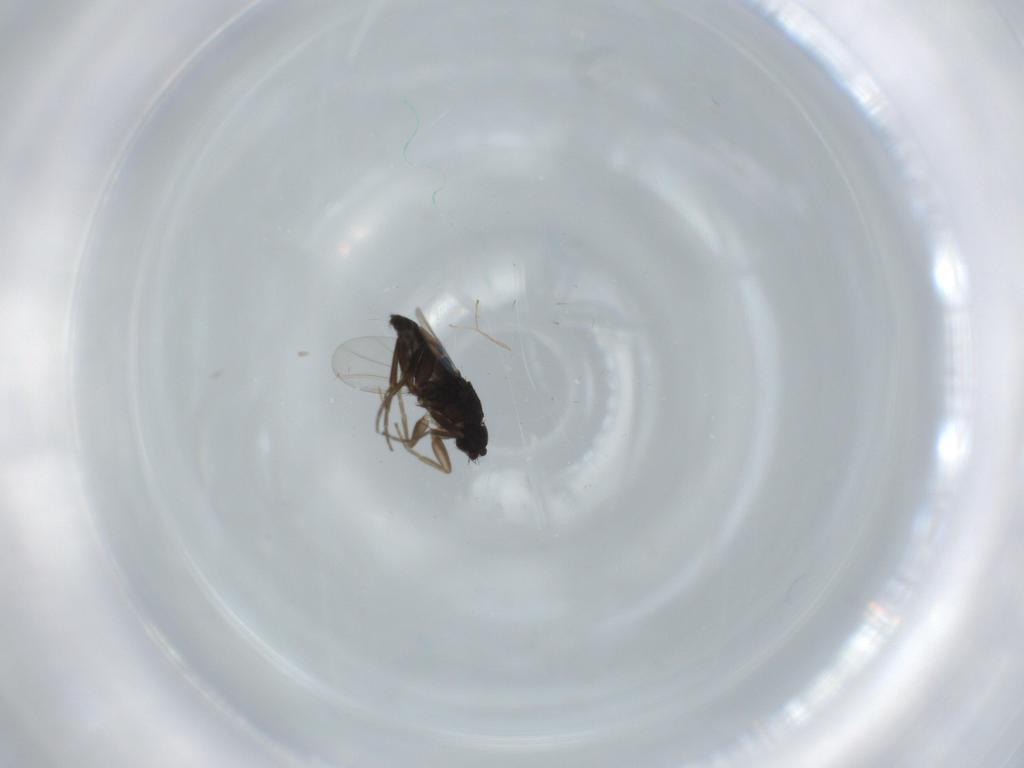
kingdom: Animalia
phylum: Arthropoda
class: Insecta
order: Diptera
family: Phoridae
